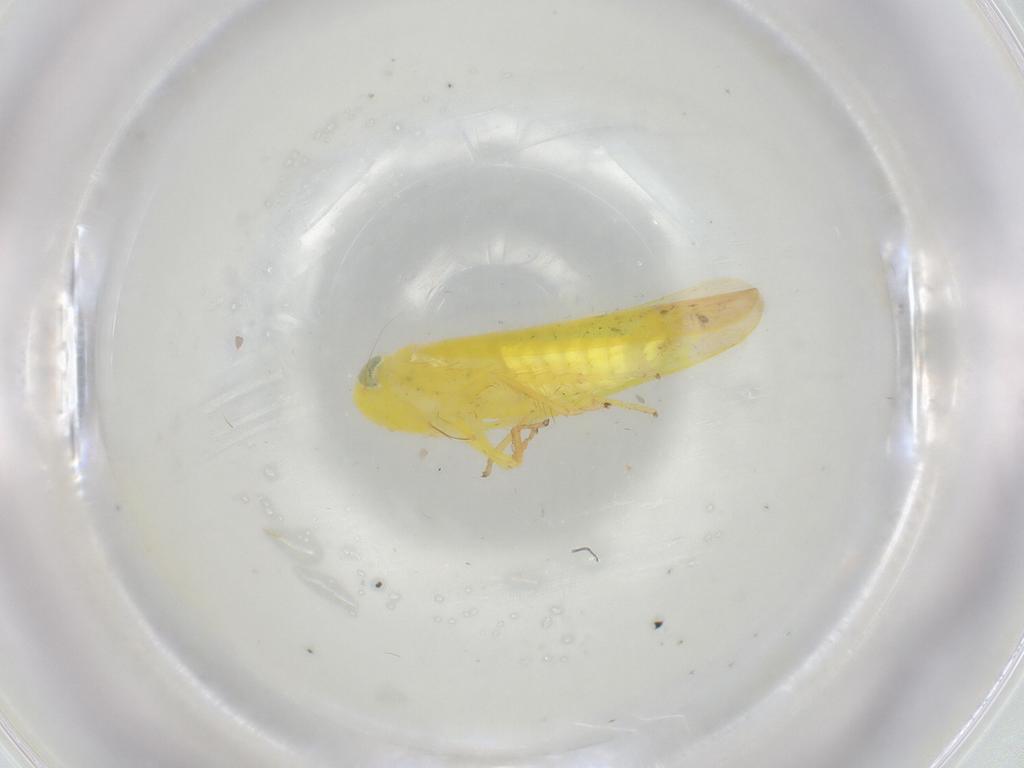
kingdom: Animalia
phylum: Arthropoda
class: Insecta
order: Hemiptera
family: Cicadellidae
